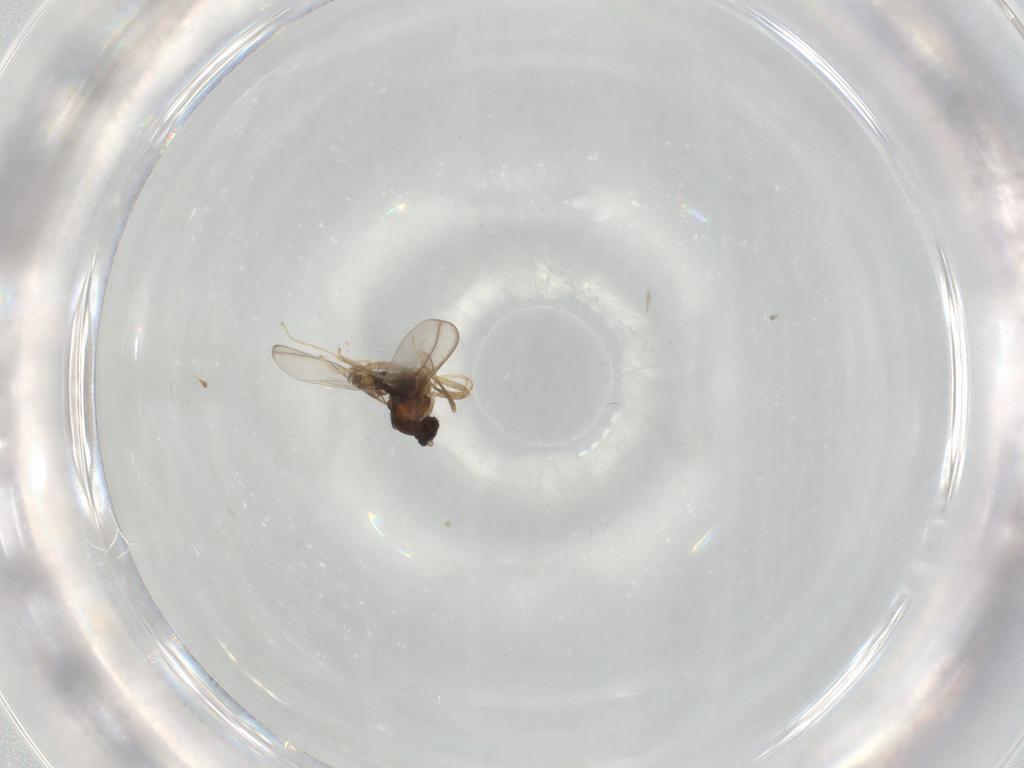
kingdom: Animalia
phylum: Arthropoda
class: Insecta
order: Diptera
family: Cecidomyiidae
